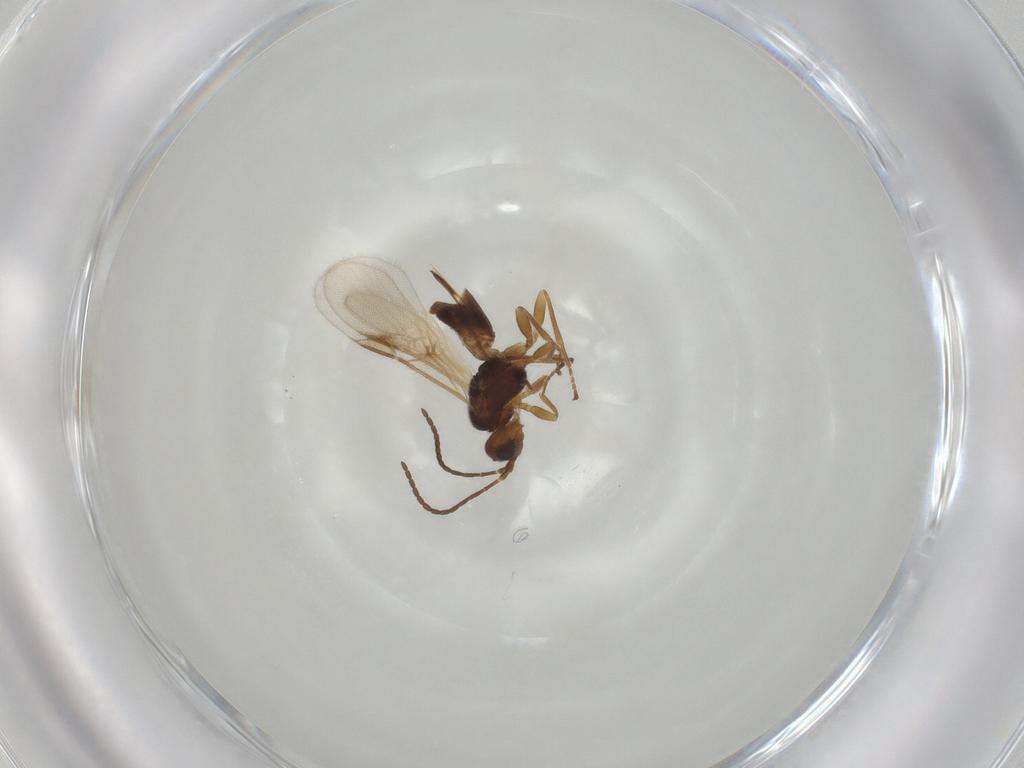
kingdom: Animalia
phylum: Arthropoda
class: Insecta
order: Hymenoptera
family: Braconidae
